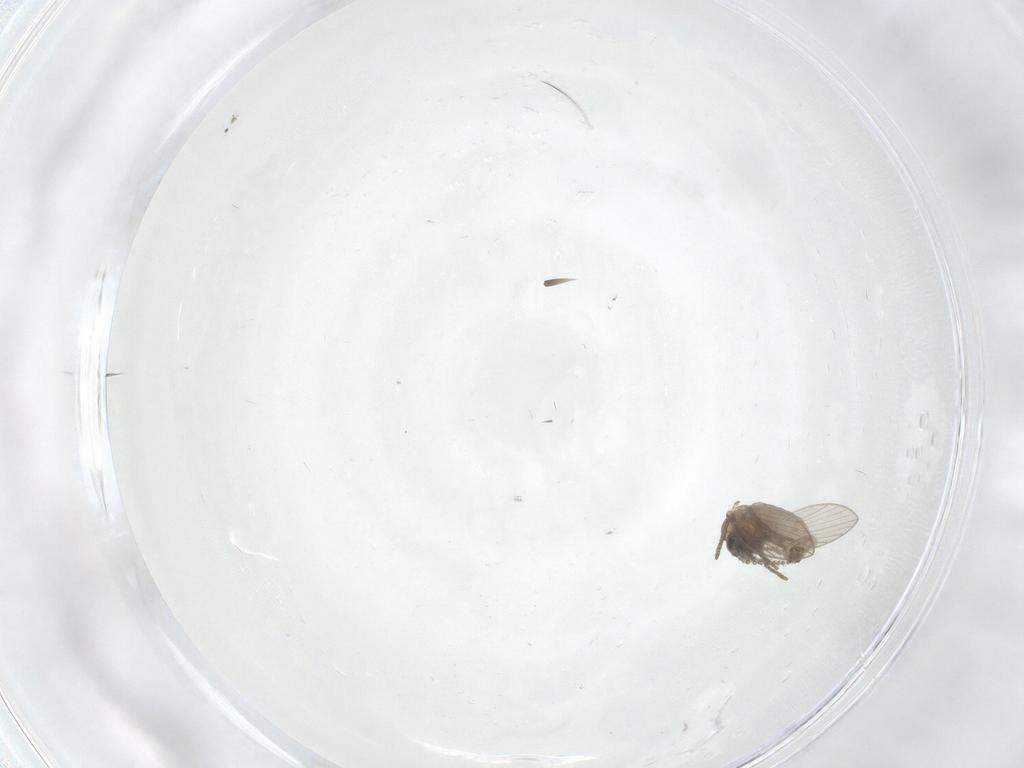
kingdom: Animalia
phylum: Arthropoda
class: Insecta
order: Diptera
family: Psychodidae
